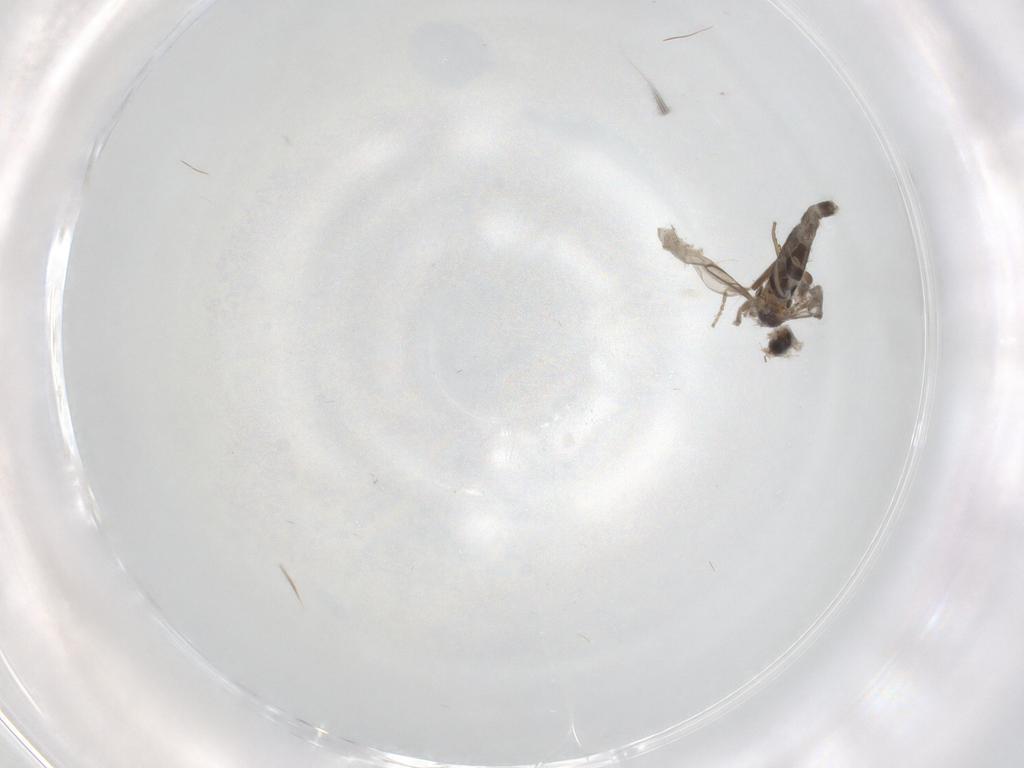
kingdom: Animalia
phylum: Arthropoda
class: Insecta
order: Diptera
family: Phoridae
